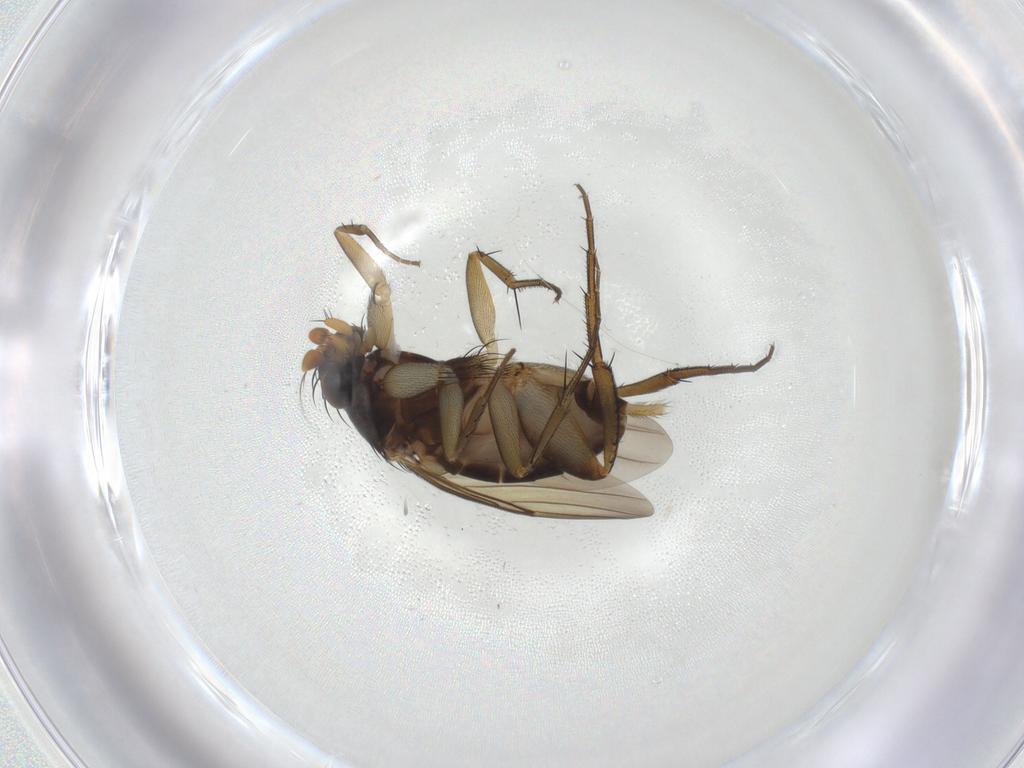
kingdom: Animalia
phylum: Arthropoda
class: Insecta
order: Diptera
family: Phoridae
